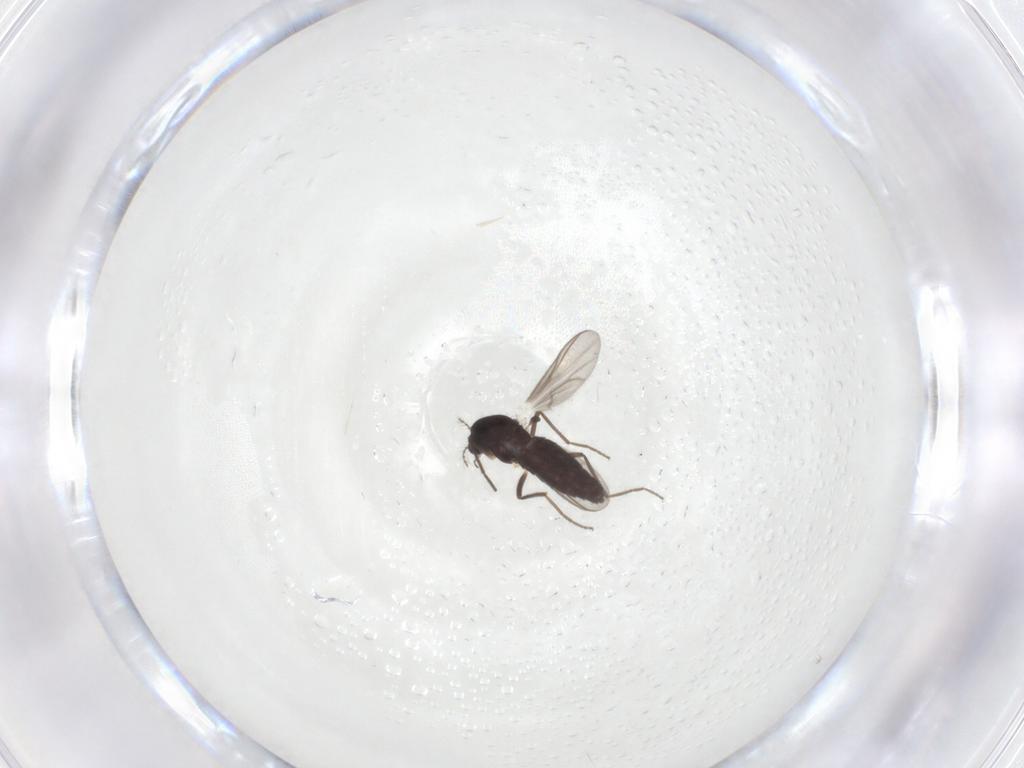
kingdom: Animalia
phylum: Arthropoda
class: Insecta
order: Diptera
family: Chironomidae
